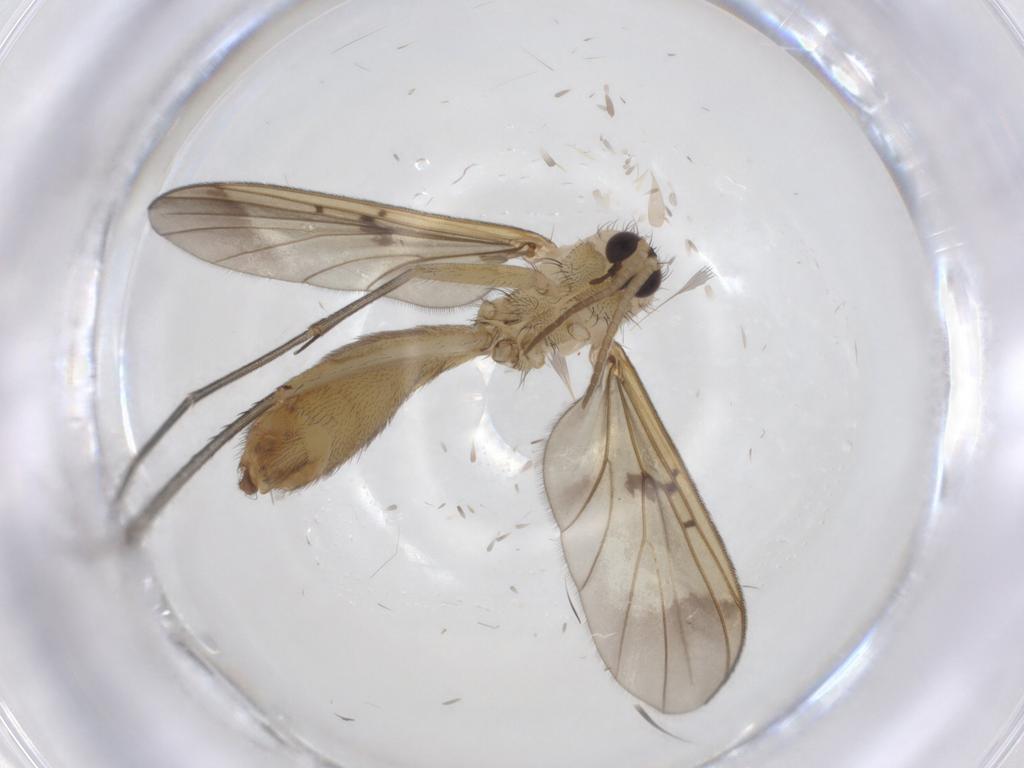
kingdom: Animalia
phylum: Arthropoda
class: Insecta
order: Diptera
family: Mycetophilidae
